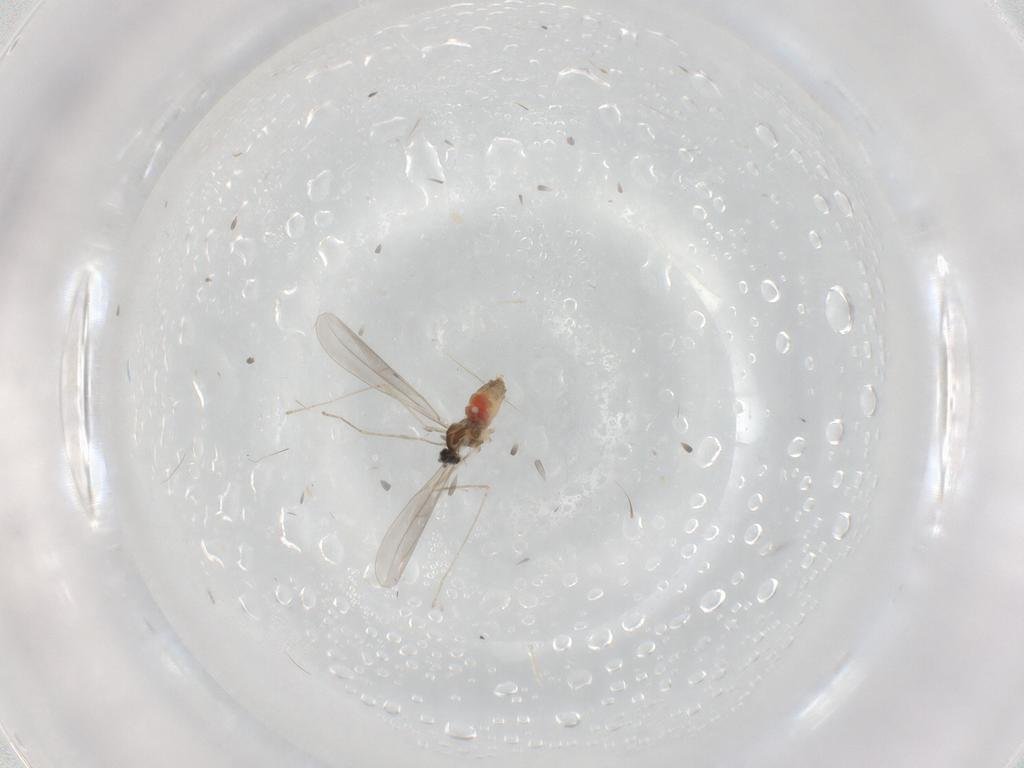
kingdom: Animalia
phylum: Arthropoda
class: Insecta
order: Diptera
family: Cecidomyiidae
